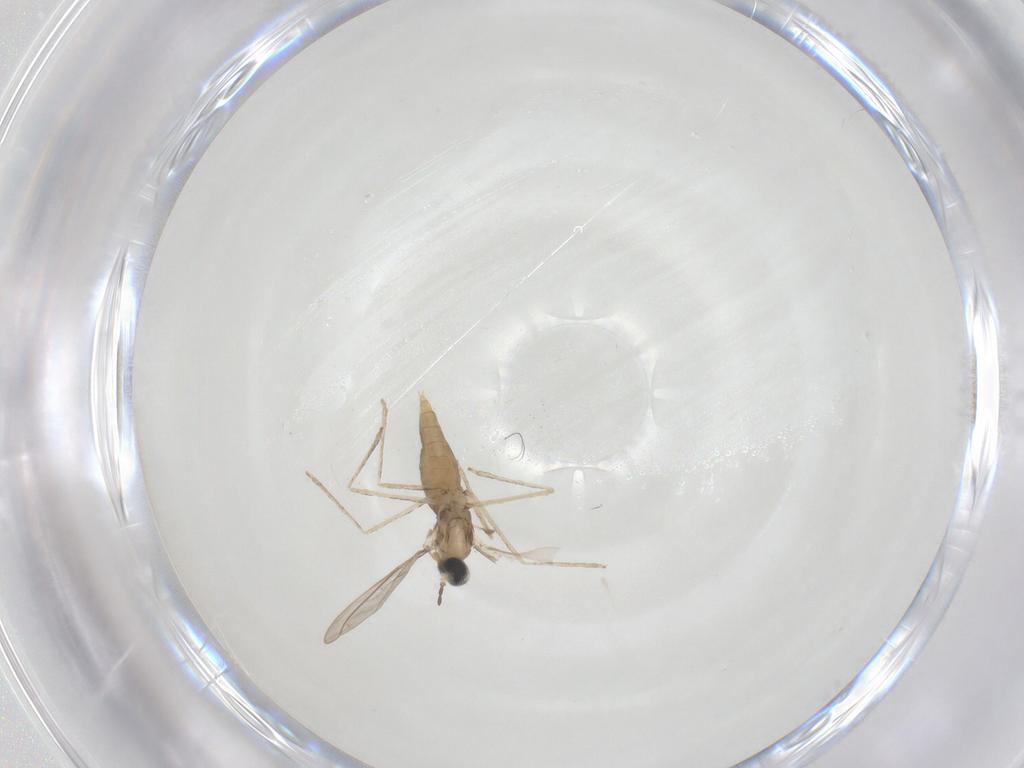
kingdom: Animalia
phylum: Arthropoda
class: Insecta
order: Diptera
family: Cecidomyiidae
